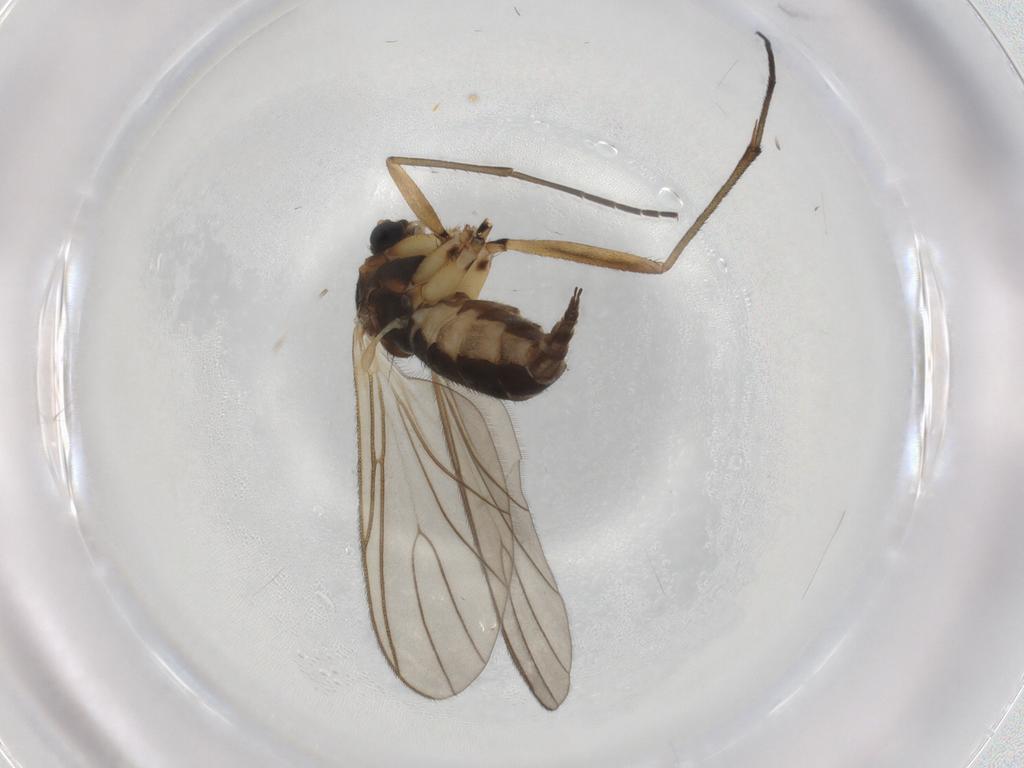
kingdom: Animalia
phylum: Arthropoda
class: Insecta
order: Diptera
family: Sciaridae
